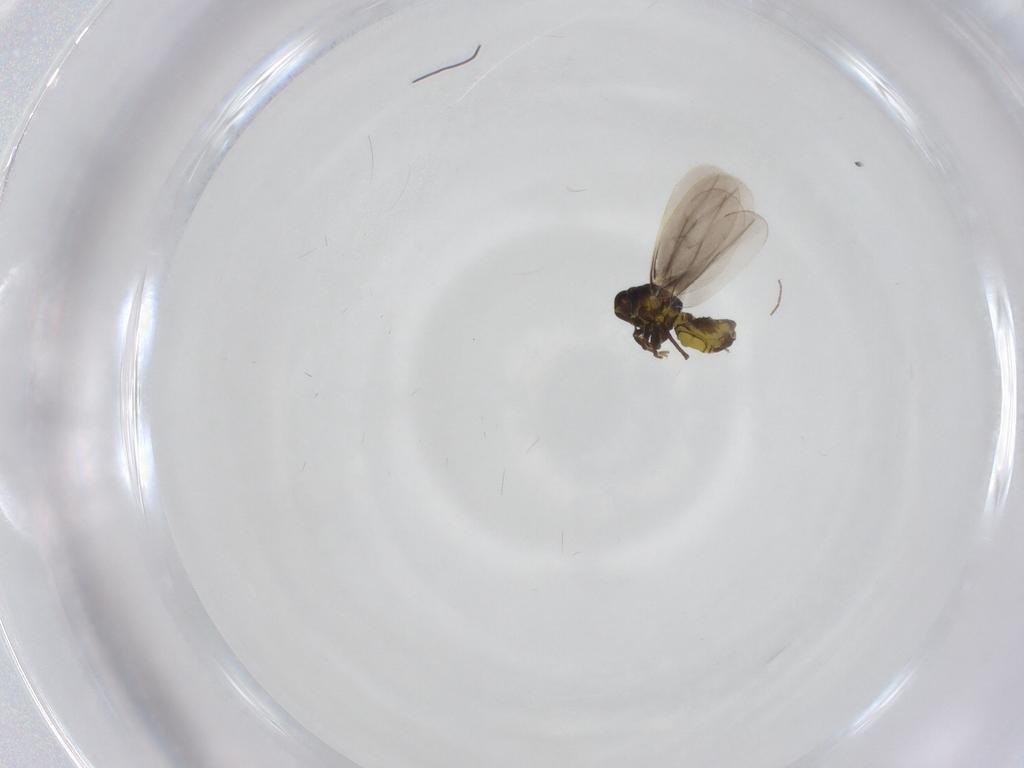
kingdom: Animalia
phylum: Arthropoda
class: Insecta
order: Hemiptera
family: Aleyrodidae
